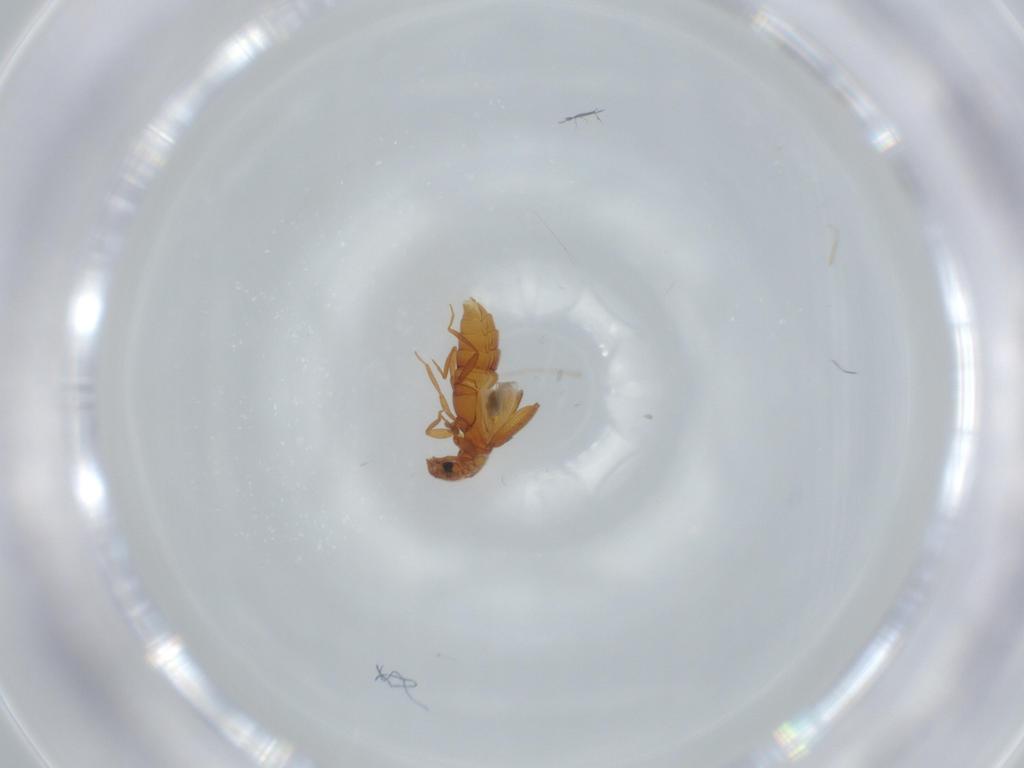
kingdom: Animalia
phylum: Arthropoda
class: Insecta
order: Coleoptera
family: Staphylinidae
